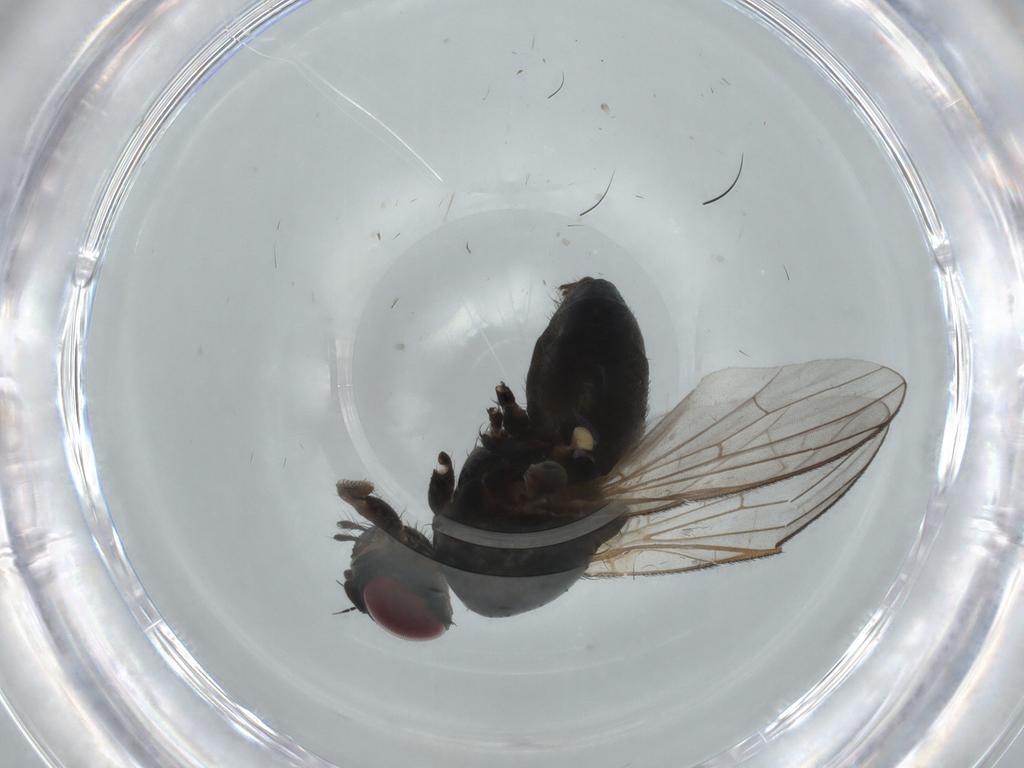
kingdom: Animalia
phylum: Arthropoda
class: Insecta
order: Diptera
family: Fannia
